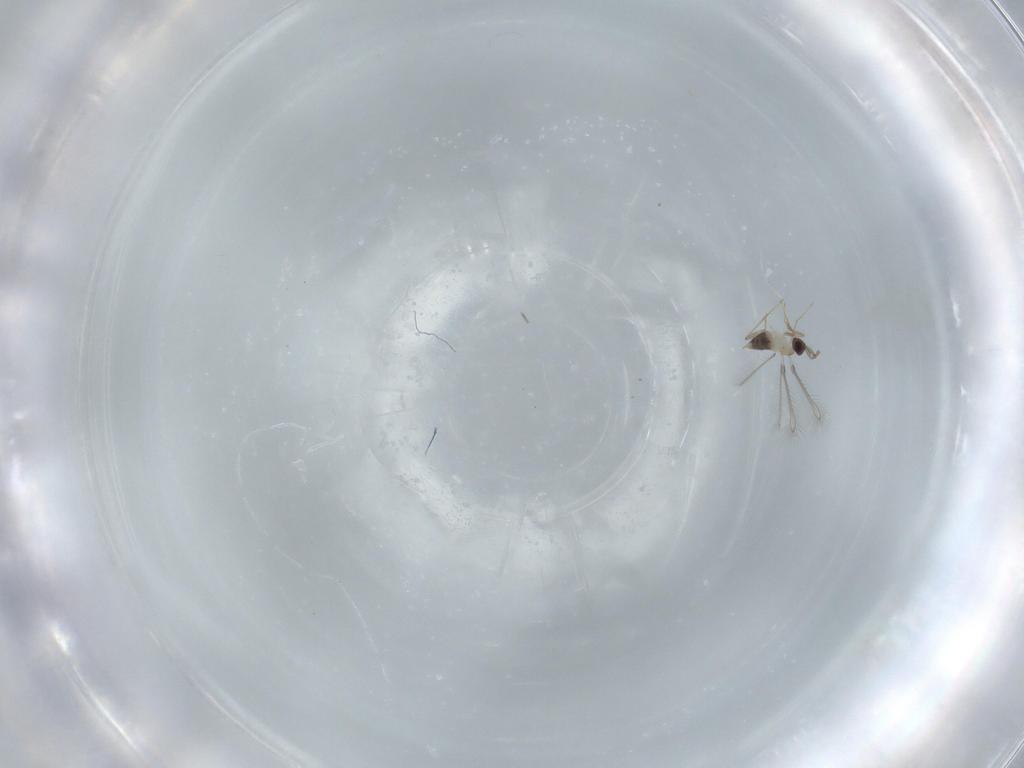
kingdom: Animalia
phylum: Arthropoda
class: Insecta
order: Hymenoptera
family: Mymaridae
